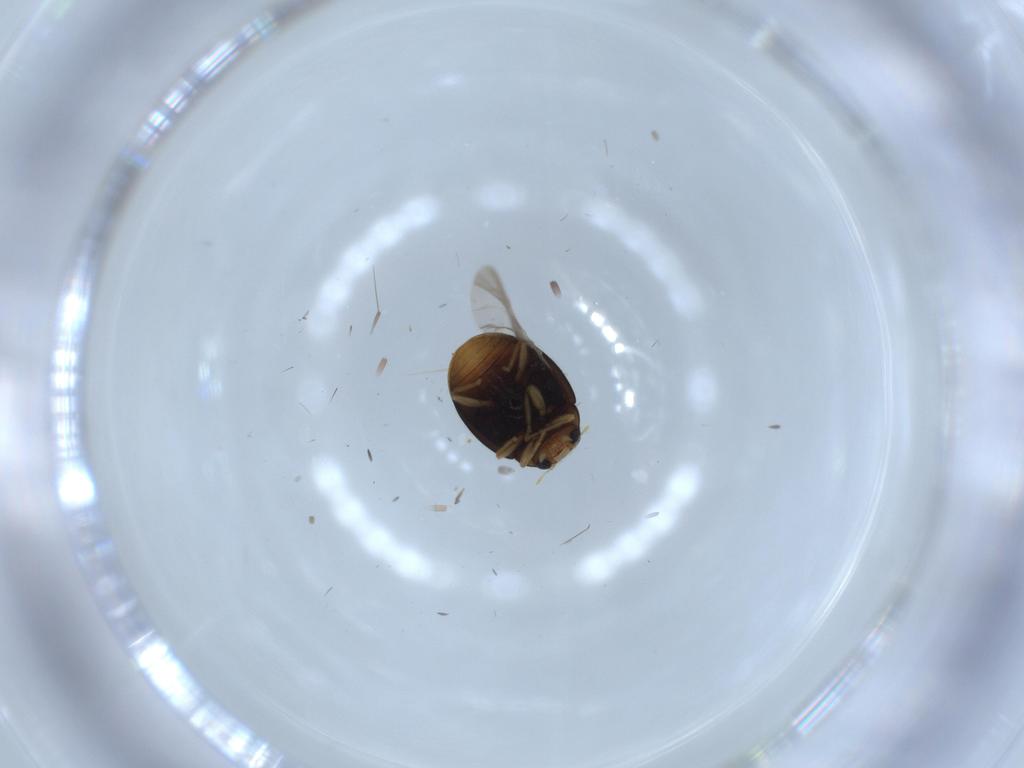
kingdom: Animalia
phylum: Arthropoda
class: Insecta
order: Coleoptera
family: Coccinellidae
